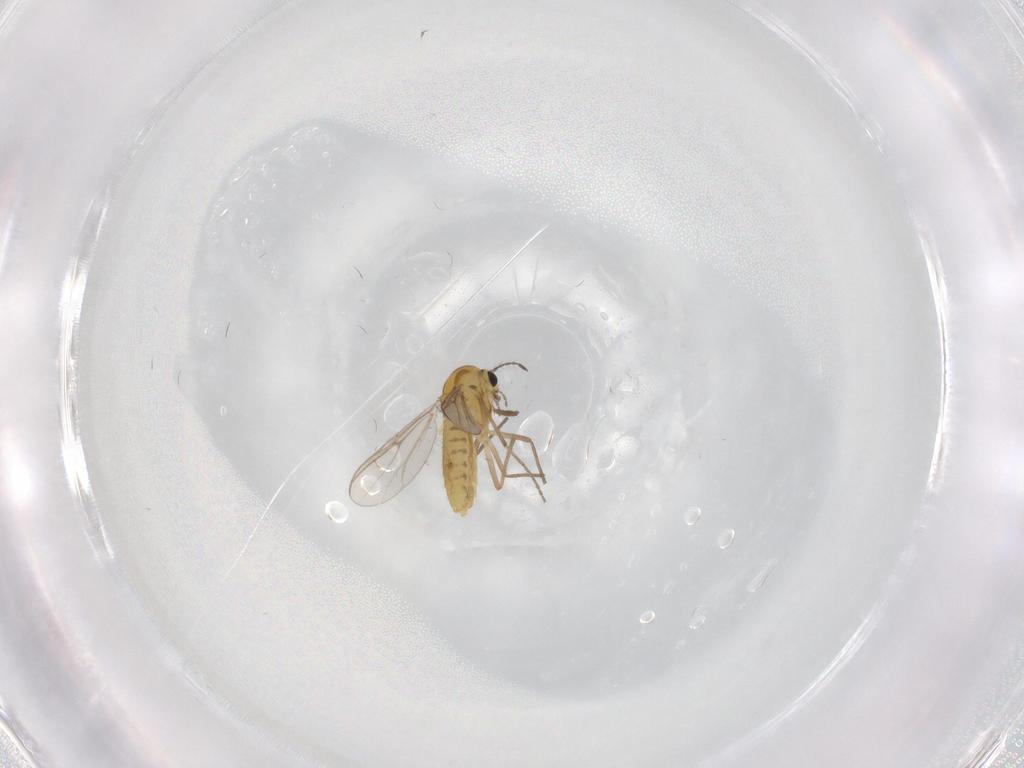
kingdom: Animalia
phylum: Arthropoda
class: Insecta
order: Diptera
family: Chironomidae
